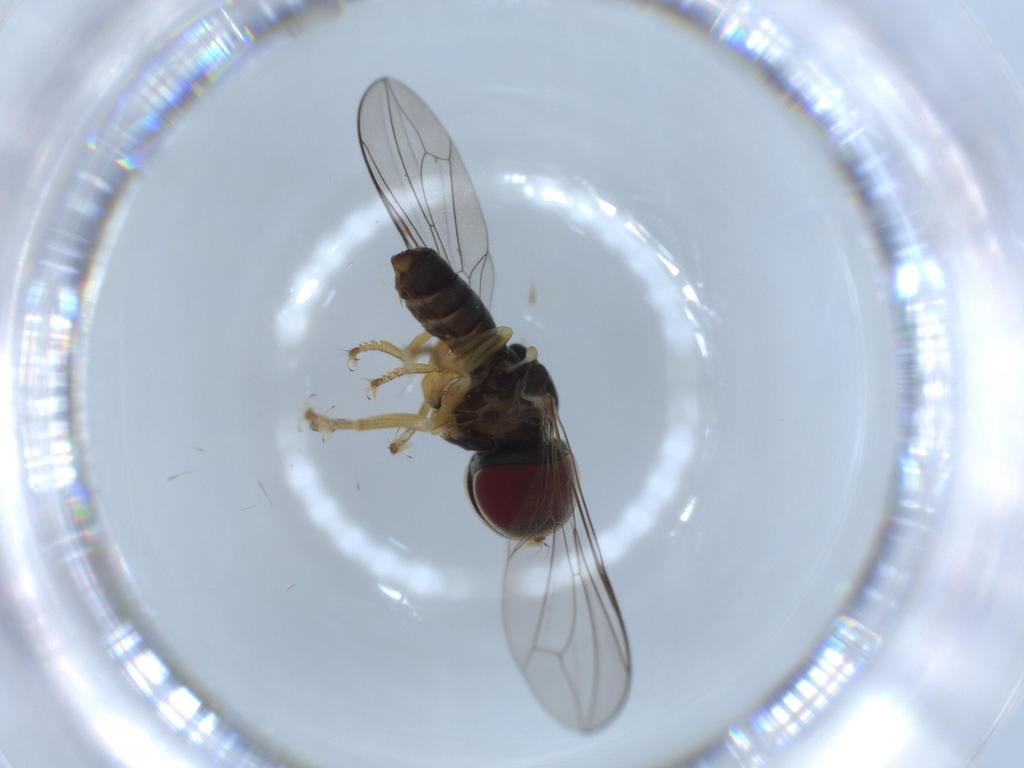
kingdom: Animalia
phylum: Arthropoda
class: Insecta
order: Diptera
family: Pipunculidae
